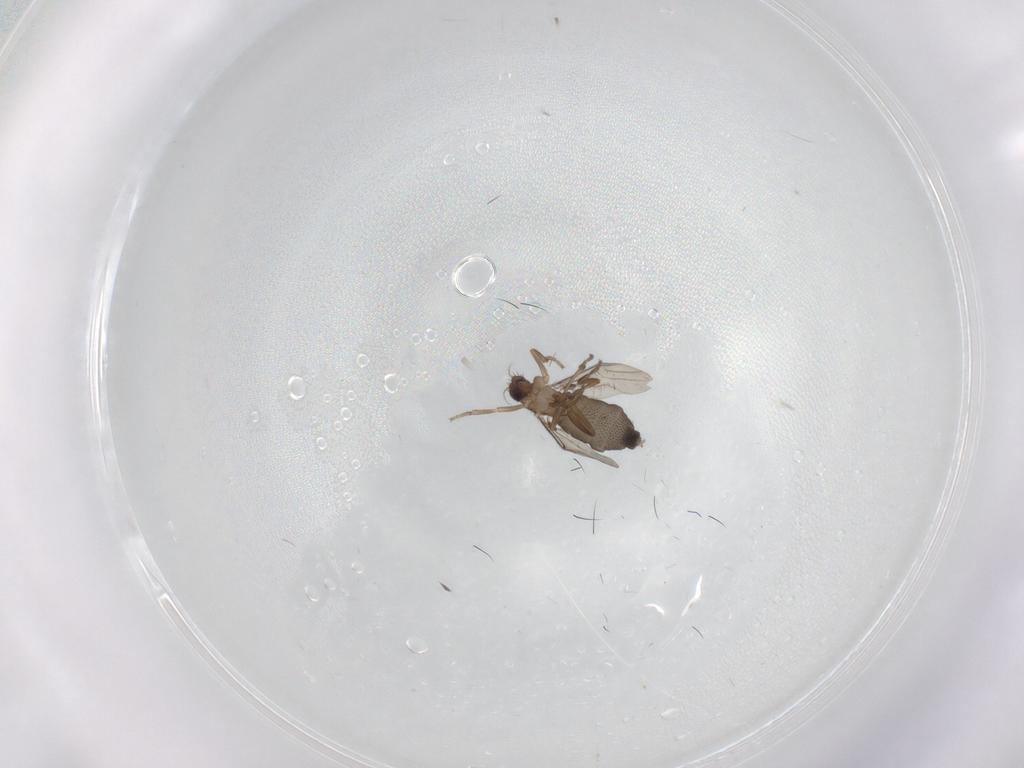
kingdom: Animalia
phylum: Arthropoda
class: Insecta
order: Diptera
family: Phoridae
